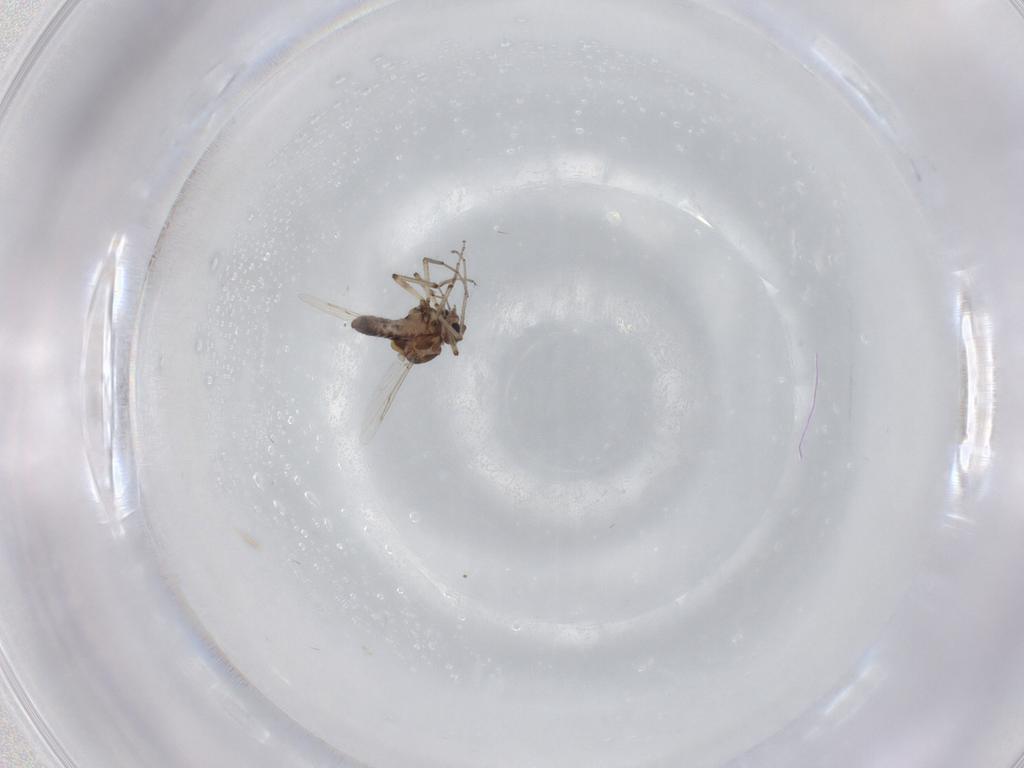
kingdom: Animalia
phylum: Arthropoda
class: Insecta
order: Diptera
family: Ceratopogonidae
